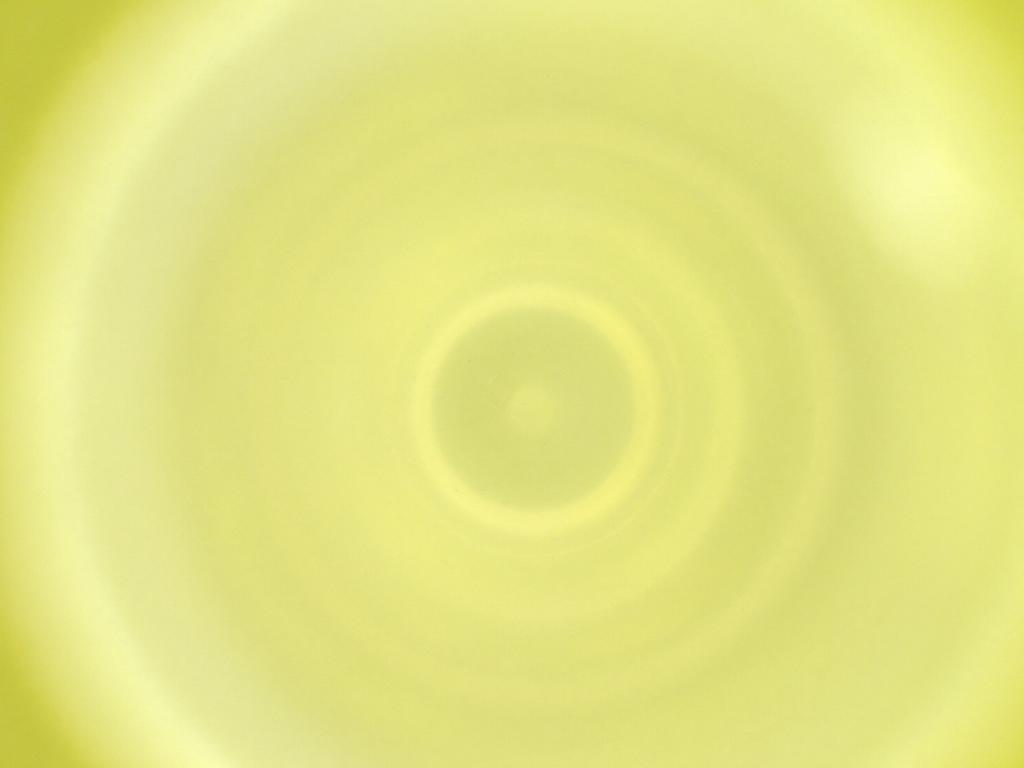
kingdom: Animalia
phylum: Arthropoda
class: Insecta
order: Diptera
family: Cecidomyiidae
